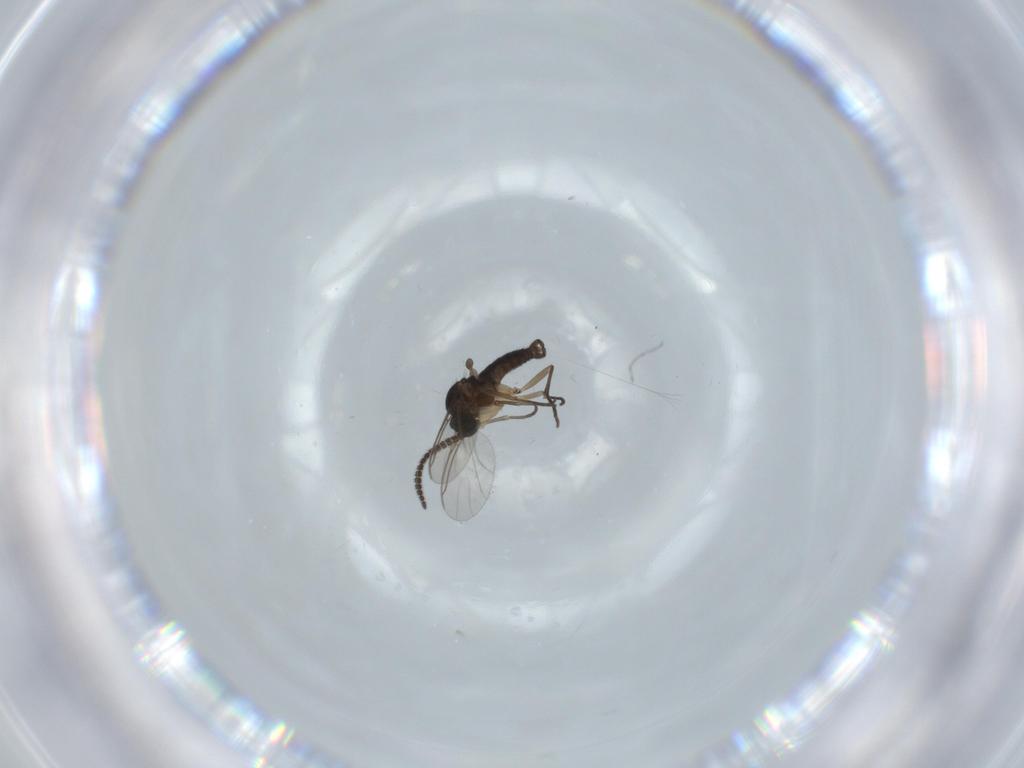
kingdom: Animalia
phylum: Arthropoda
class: Insecta
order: Diptera
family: Sciaridae
